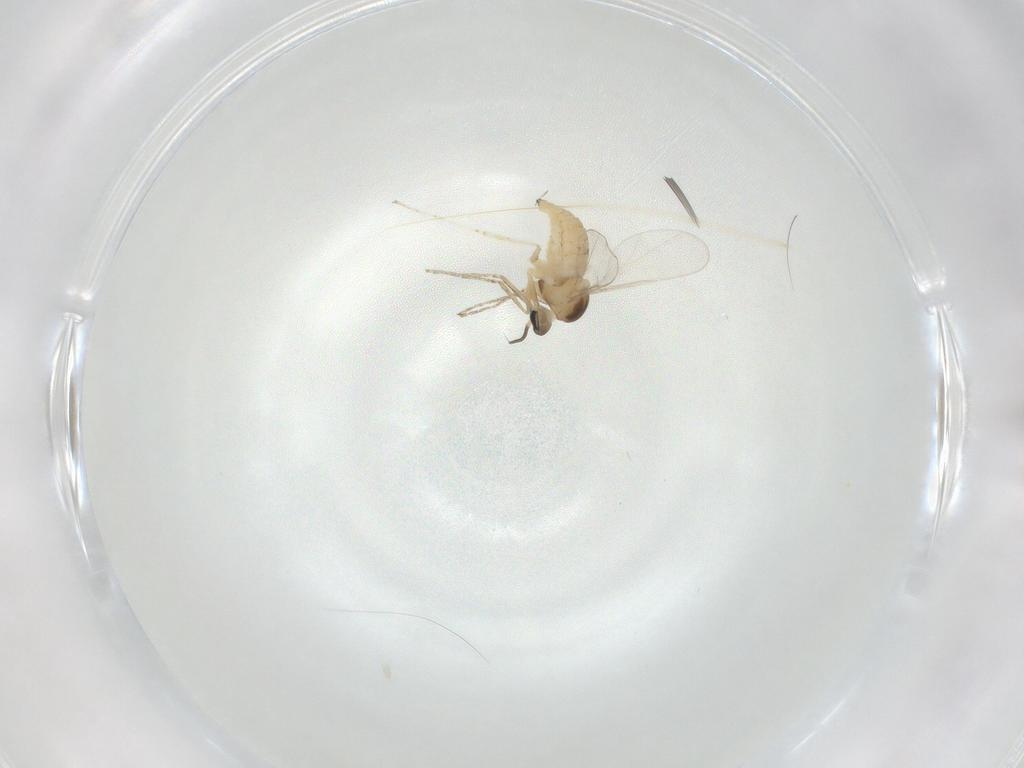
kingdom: Animalia
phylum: Arthropoda
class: Insecta
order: Diptera
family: Cecidomyiidae
